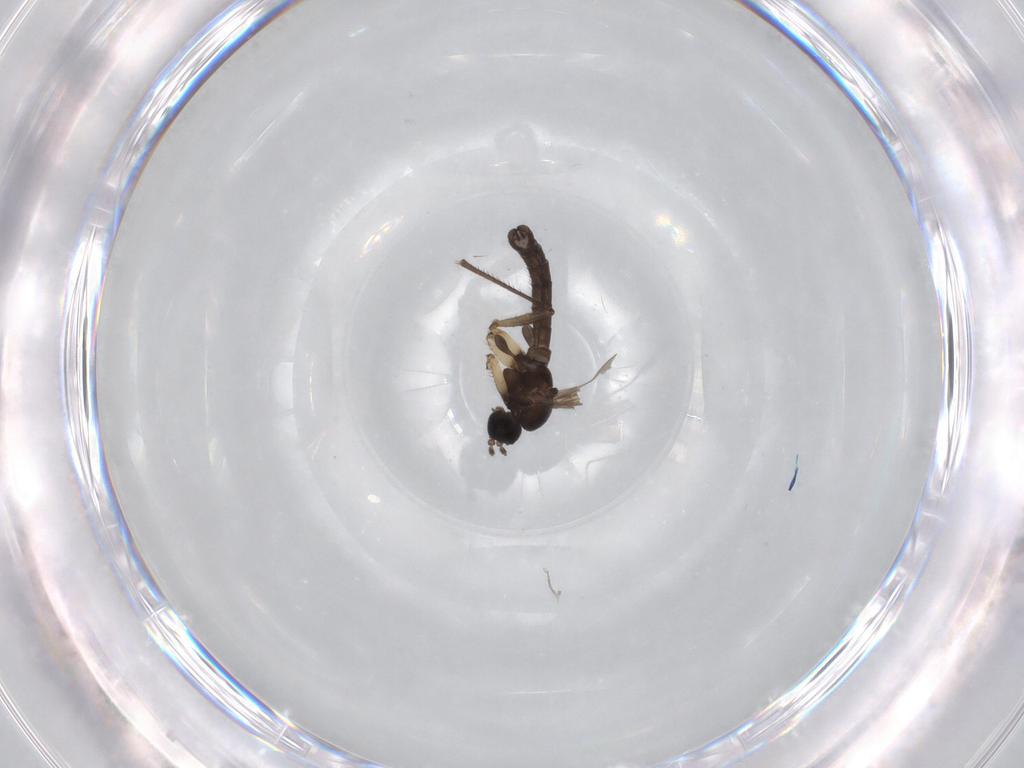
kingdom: Animalia
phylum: Arthropoda
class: Insecta
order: Diptera
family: Sciaridae
